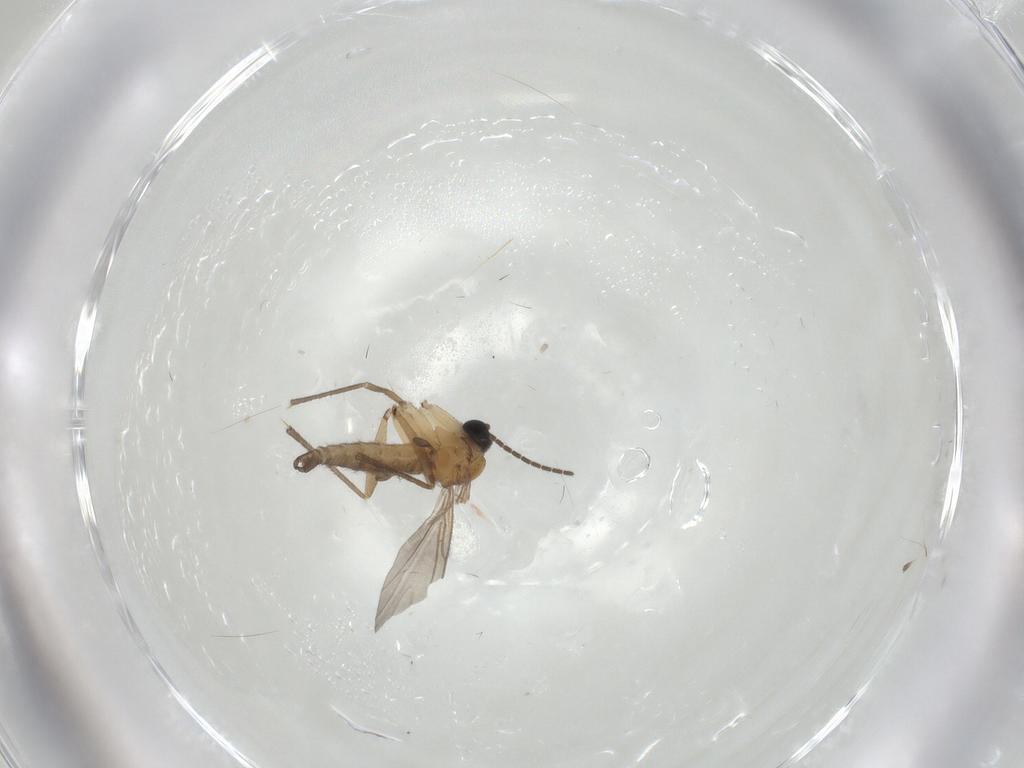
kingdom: Animalia
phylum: Arthropoda
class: Insecta
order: Diptera
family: Sciaridae
